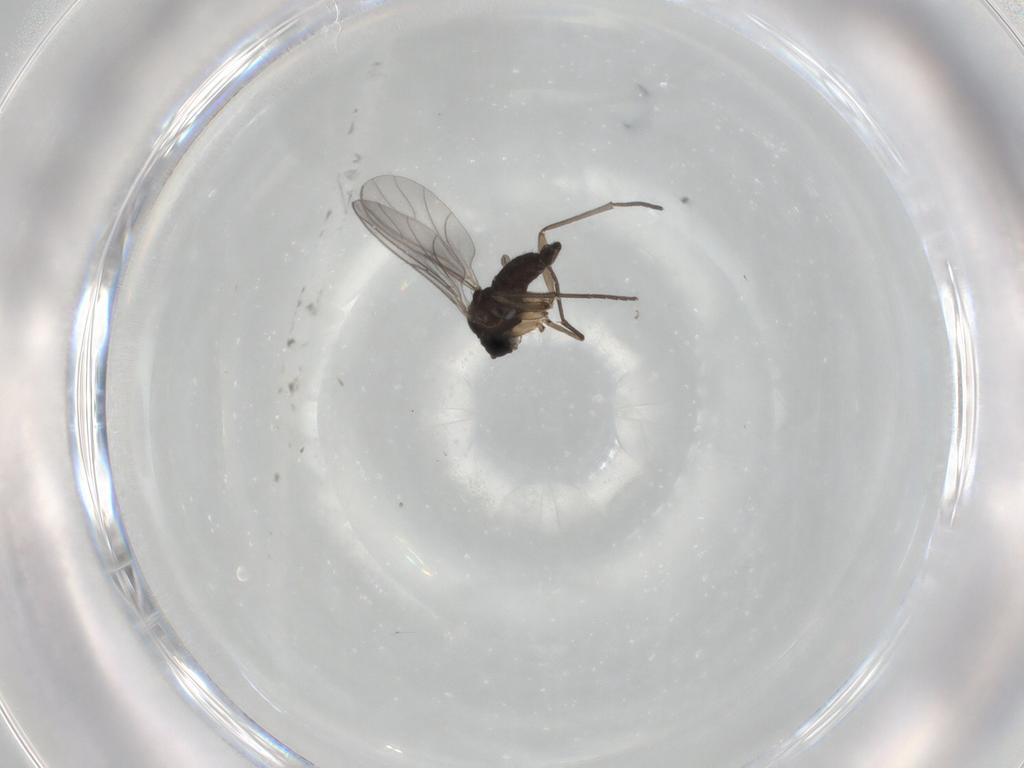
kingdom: Animalia
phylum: Arthropoda
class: Insecta
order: Diptera
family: Sciaridae
